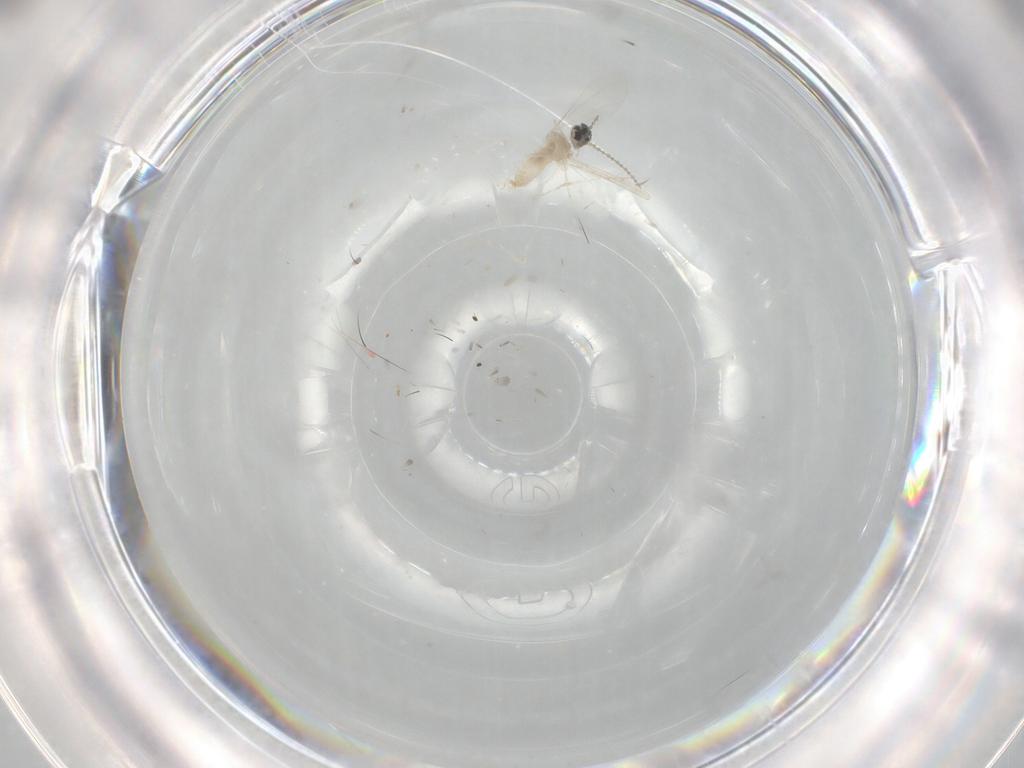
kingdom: Animalia
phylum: Arthropoda
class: Insecta
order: Diptera
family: Cecidomyiidae
